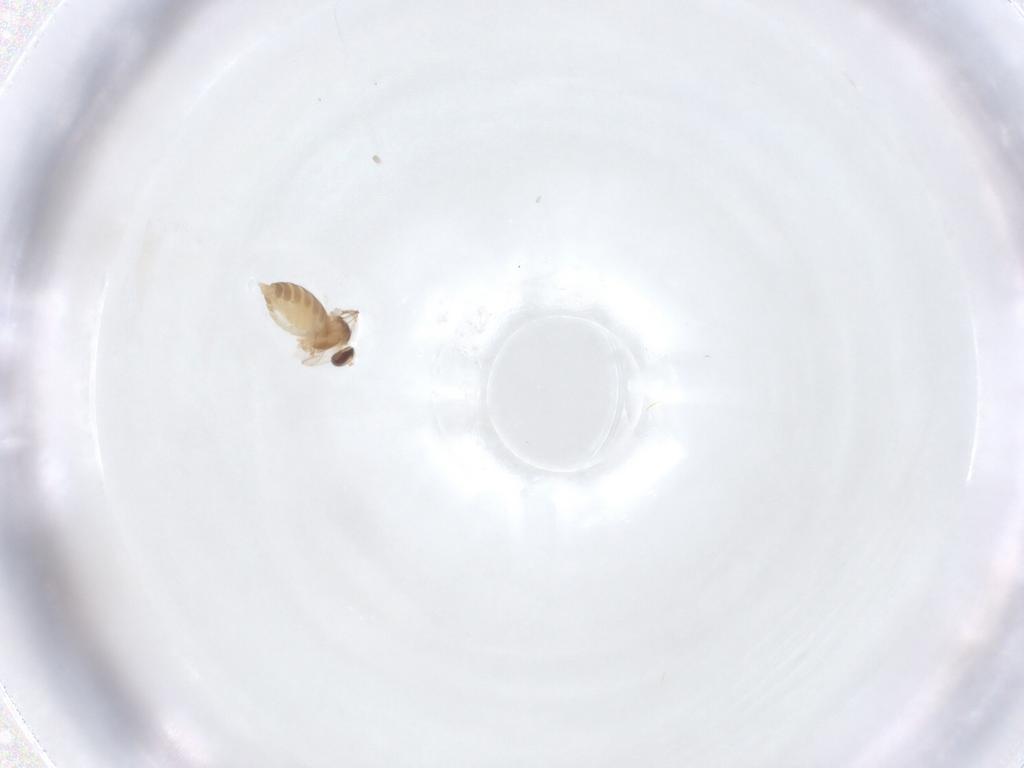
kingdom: Animalia
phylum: Arthropoda
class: Insecta
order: Diptera
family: Cecidomyiidae
